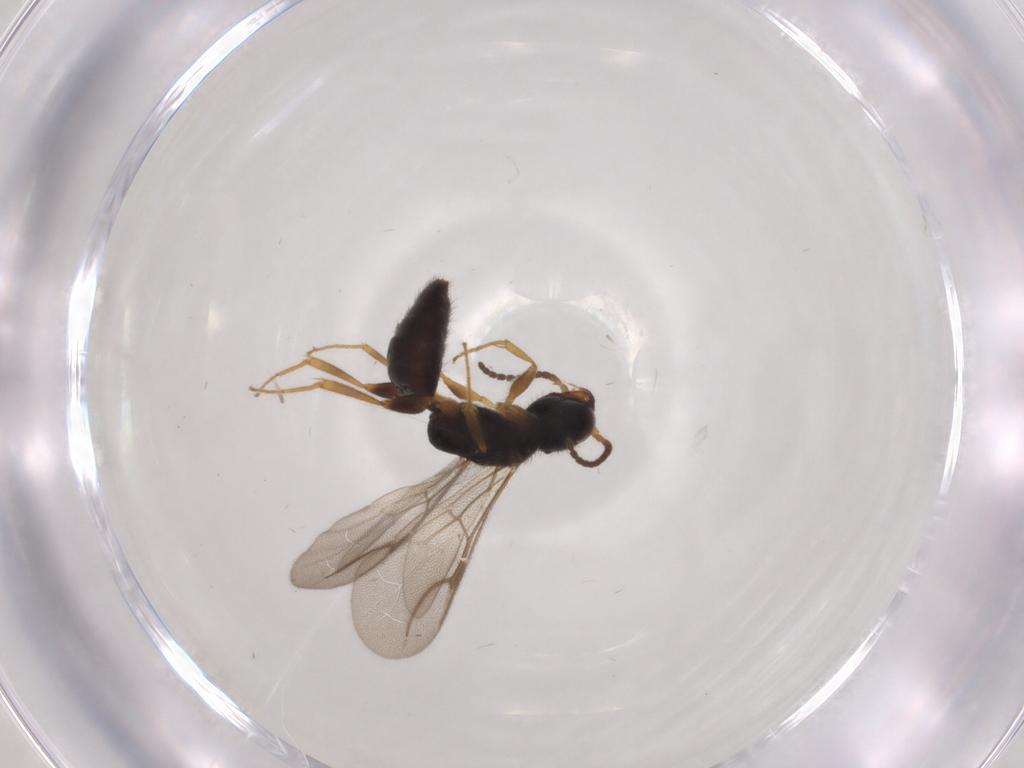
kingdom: Animalia
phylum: Arthropoda
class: Insecta
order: Hymenoptera
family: Bethylidae
